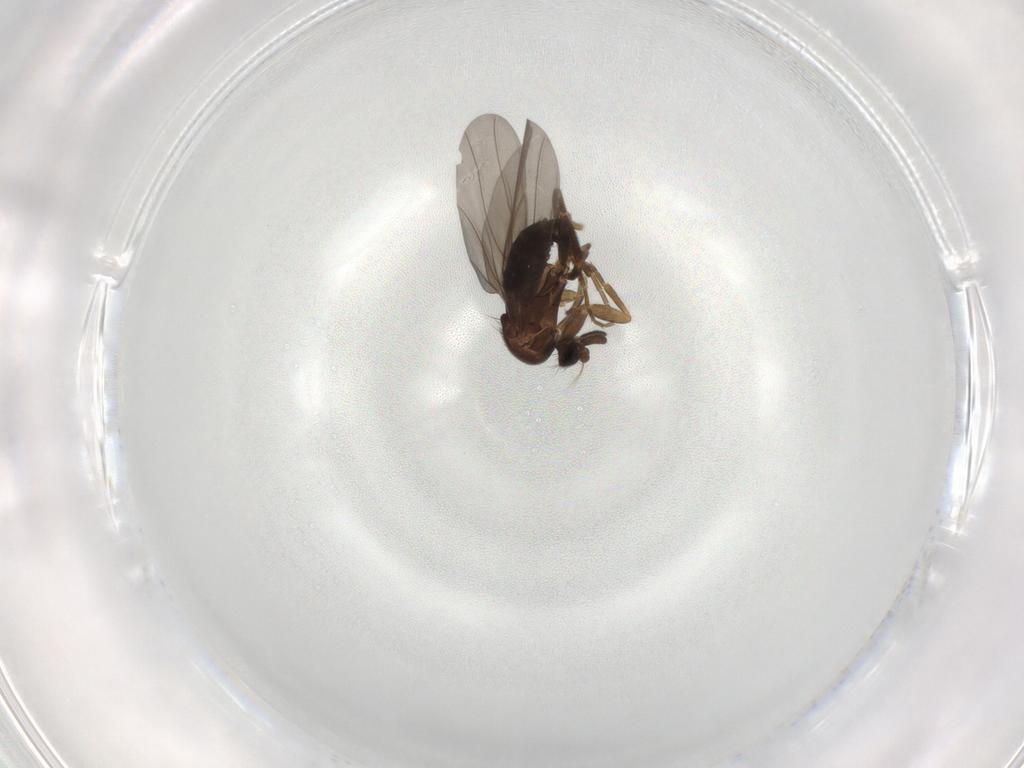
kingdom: Animalia
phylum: Arthropoda
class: Insecta
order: Diptera
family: Phoridae
